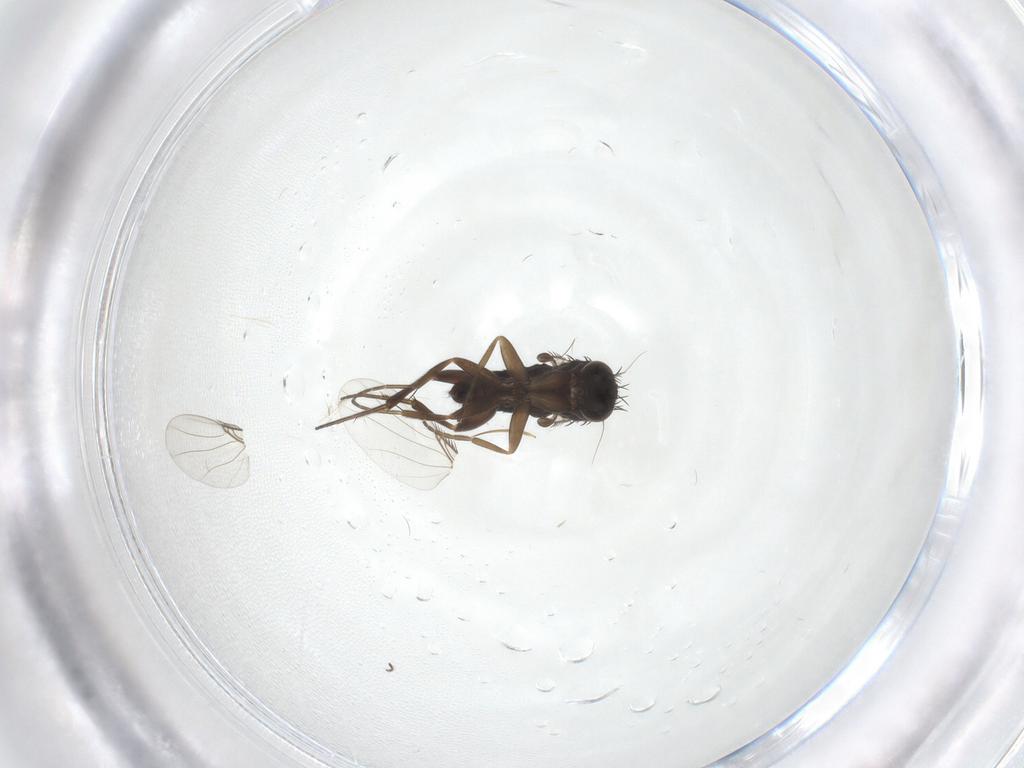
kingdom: Animalia
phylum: Arthropoda
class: Insecta
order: Diptera
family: Cecidomyiidae
